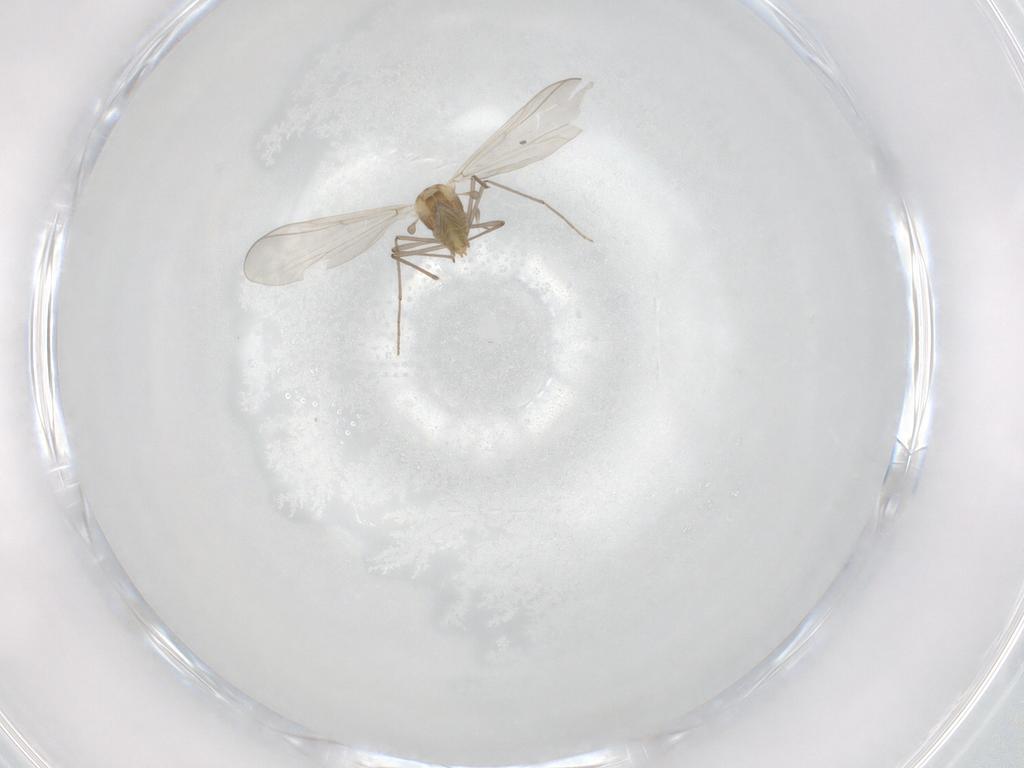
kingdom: Animalia
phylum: Arthropoda
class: Insecta
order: Diptera
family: Chironomidae
